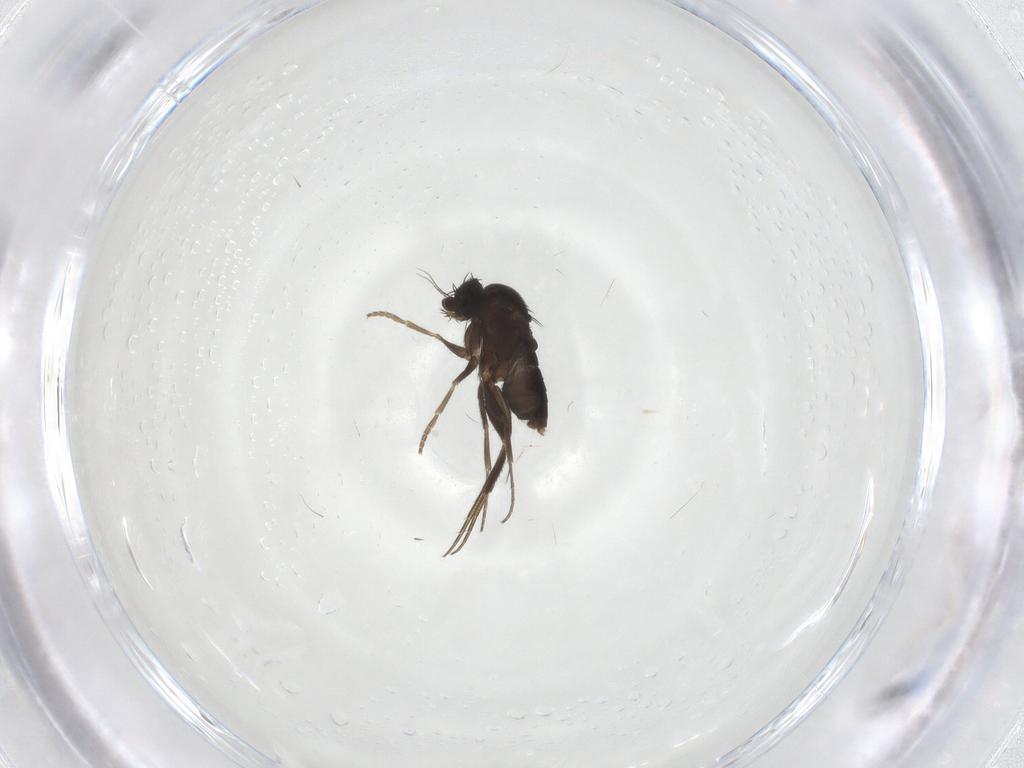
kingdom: Animalia
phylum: Arthropoda
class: Insecta
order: Diptera
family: Phoridae
